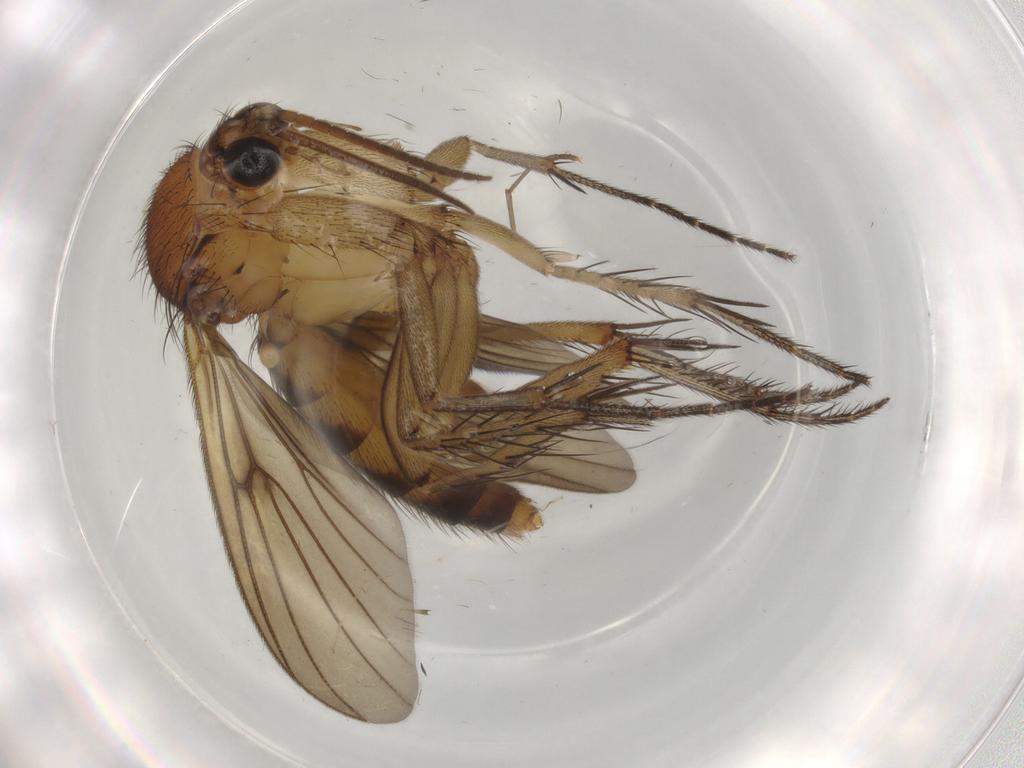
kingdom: Animalia
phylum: Arthropoda
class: Insecta
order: Diptera
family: Psychodidae
